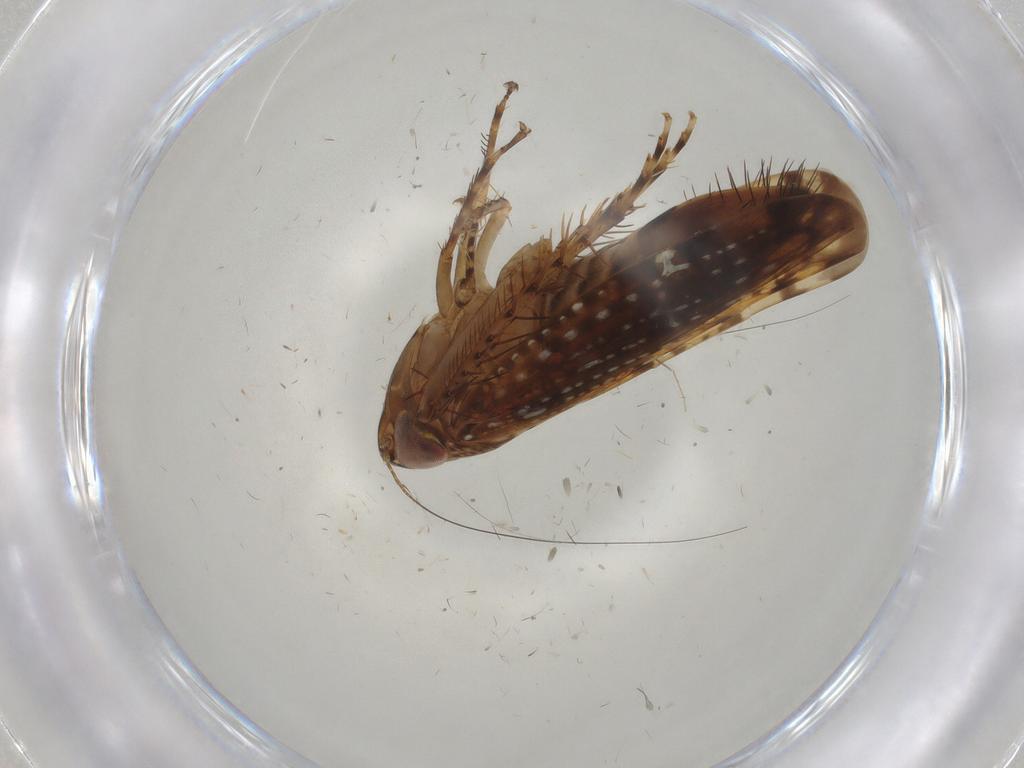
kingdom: Animalia
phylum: Arthropoda
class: Insecta
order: Hemiptera
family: Cicadellidae
